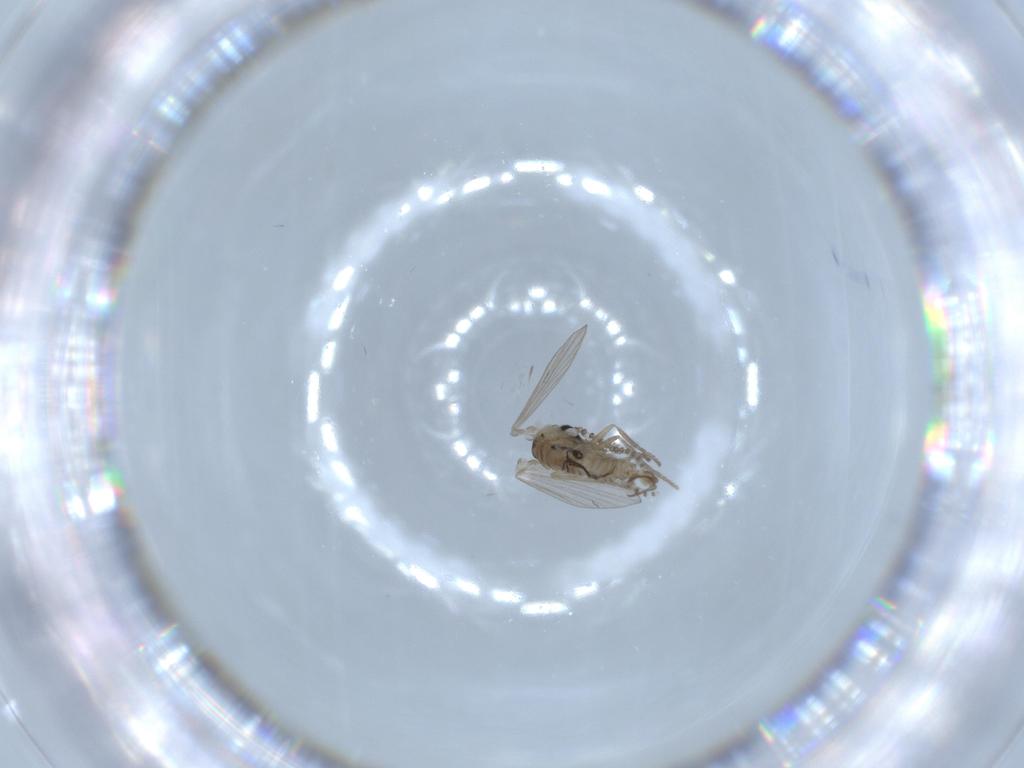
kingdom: Animalia
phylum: Arthropoda
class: Insecta
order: Diptera
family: Psychodidae
